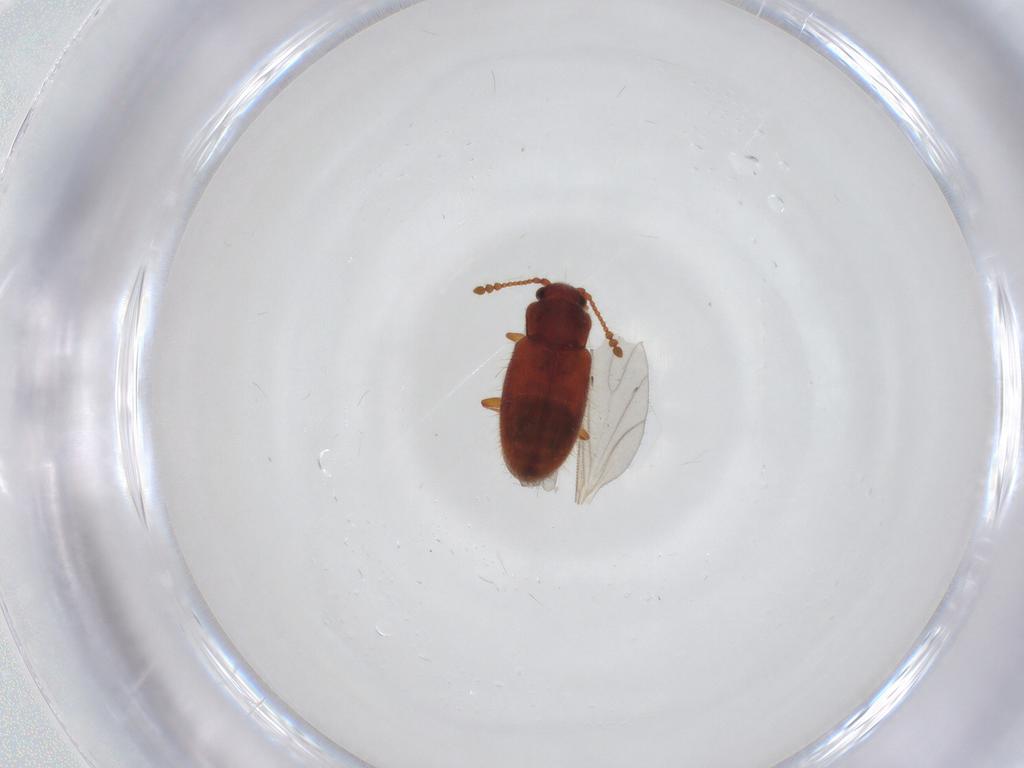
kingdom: Animalia
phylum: Arthropoda
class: Insecta
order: Coleoptera
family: Cryptophagidae
